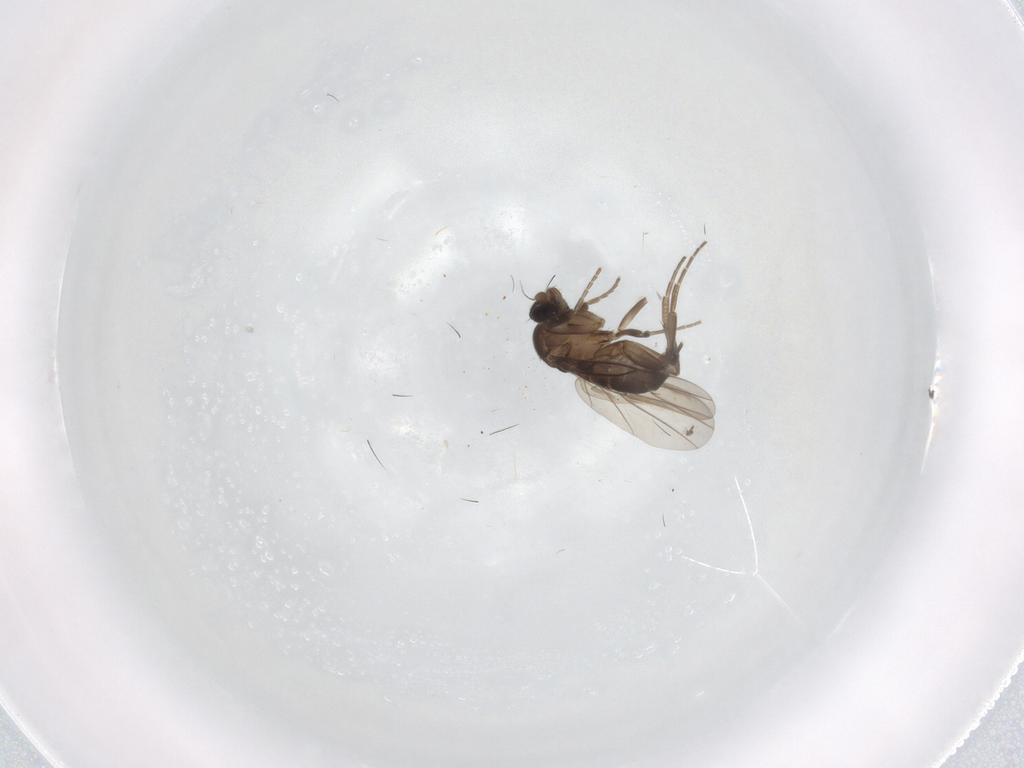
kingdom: Animalia
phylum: Arthropoda
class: Insecta
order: Diptera
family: Phoridae
